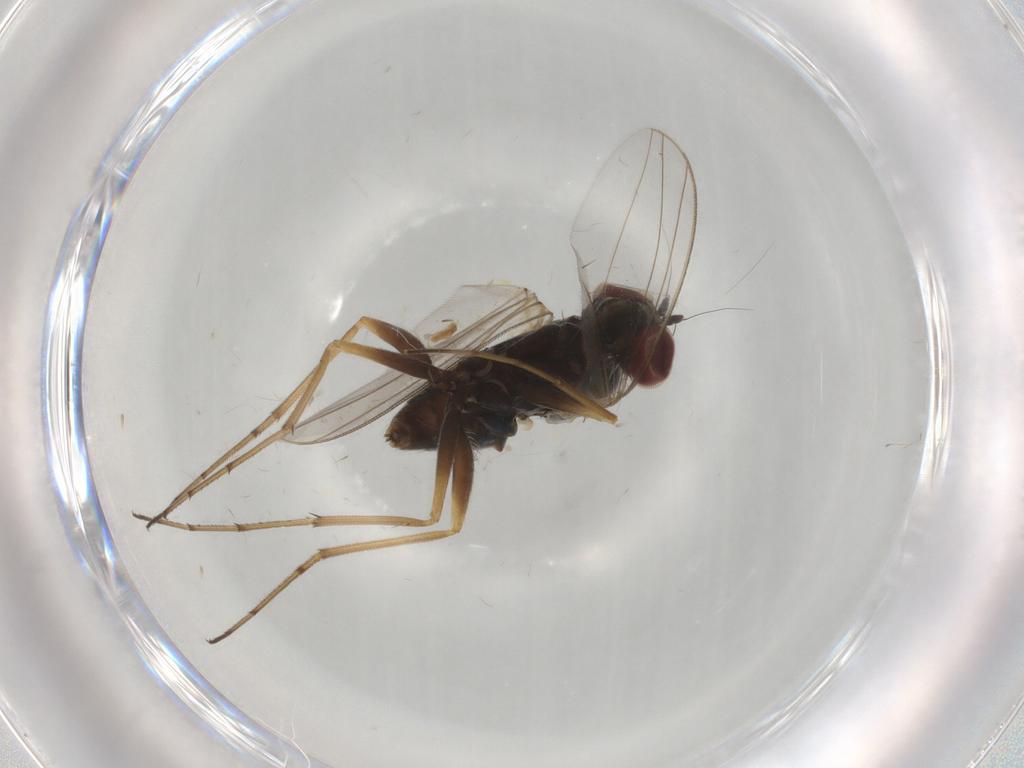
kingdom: Animalia
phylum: Arthropoda
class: Insecta
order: Diptera
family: Dolichopodidae
